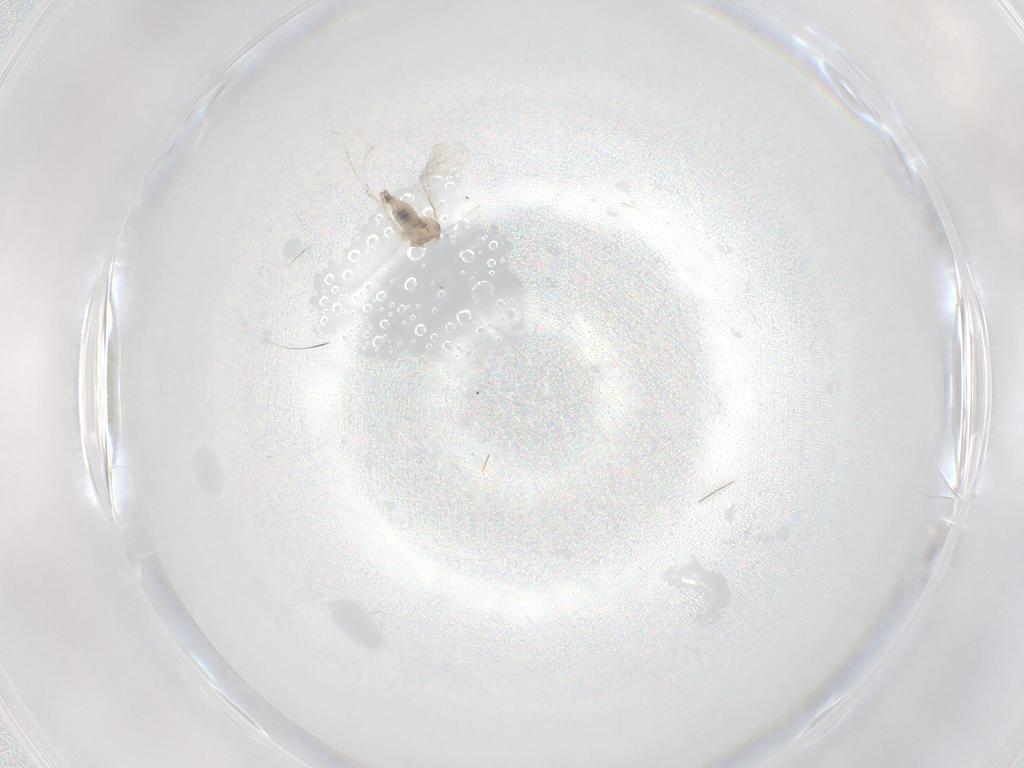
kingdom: Animalia
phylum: Arthropoda
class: Insecta
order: Diptera
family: Cecidomyiidae
